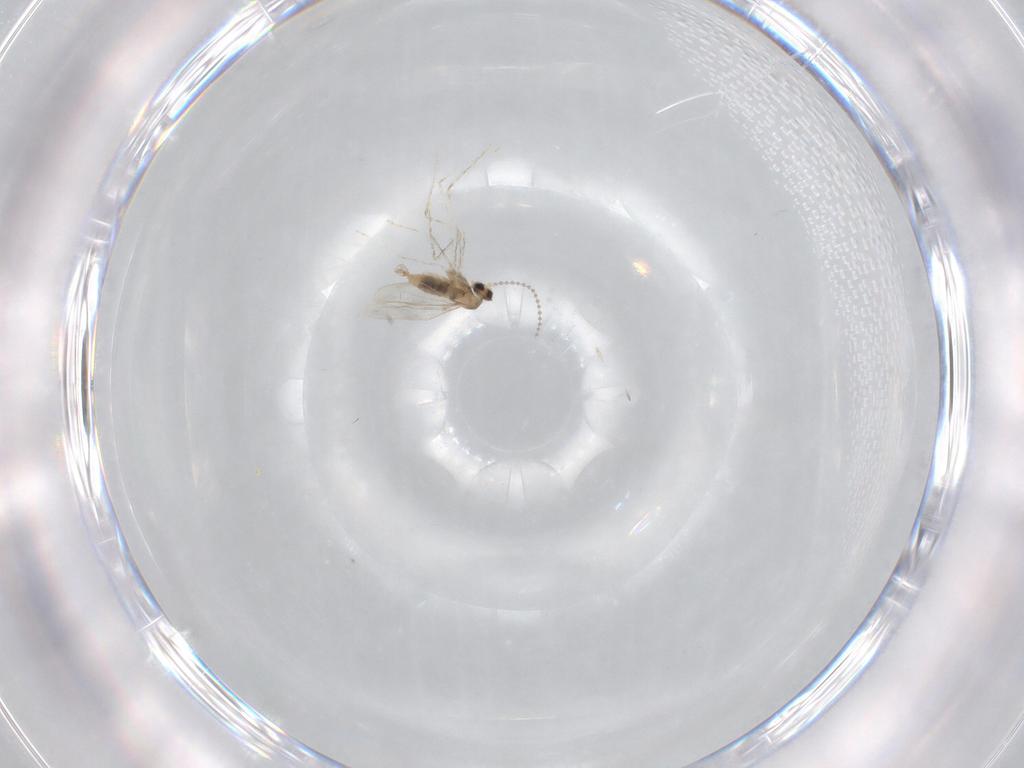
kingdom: Animalia
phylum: Arthropoda
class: Insecta
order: Diptera
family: Cecidomyiidae
